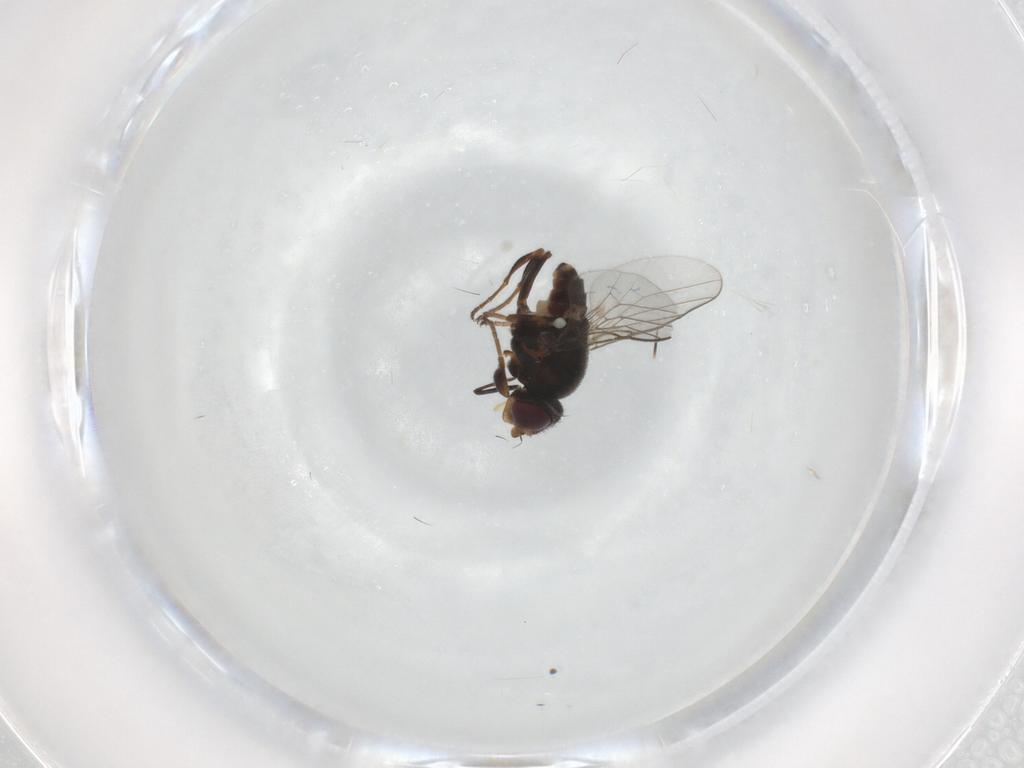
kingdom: Animalia
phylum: Arthropoda
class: Insecta
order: Diptera
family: Chloropidae
